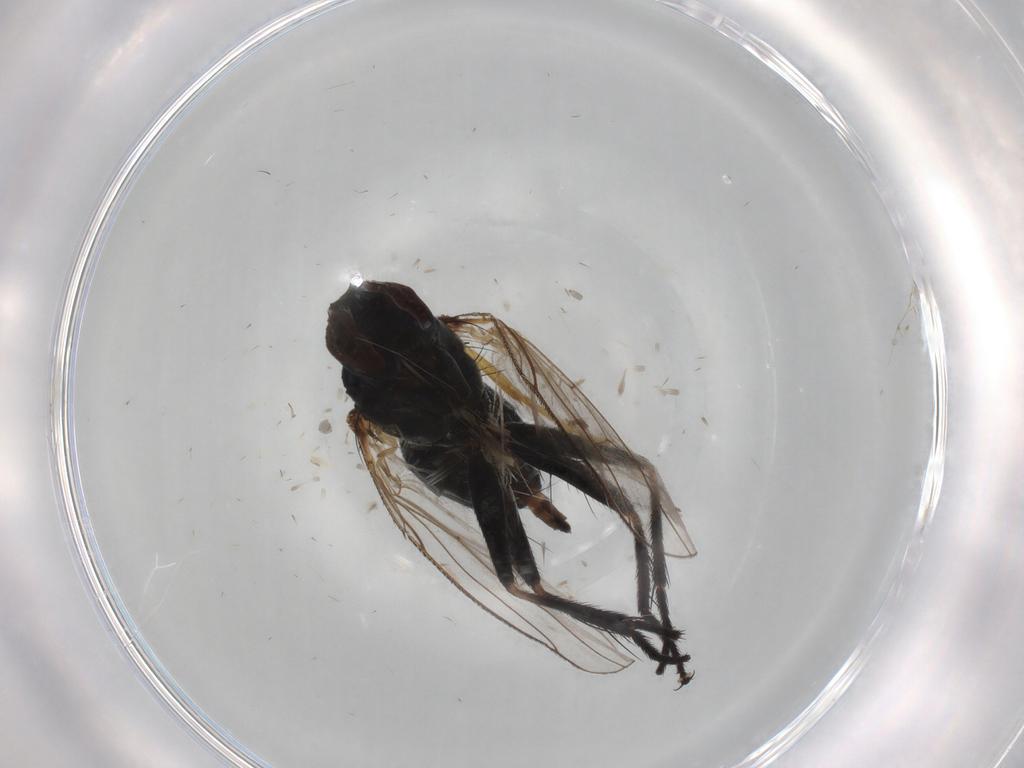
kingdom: Animalia
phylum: Arthropoda
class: Insecta
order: Diptera
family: Muscidae
